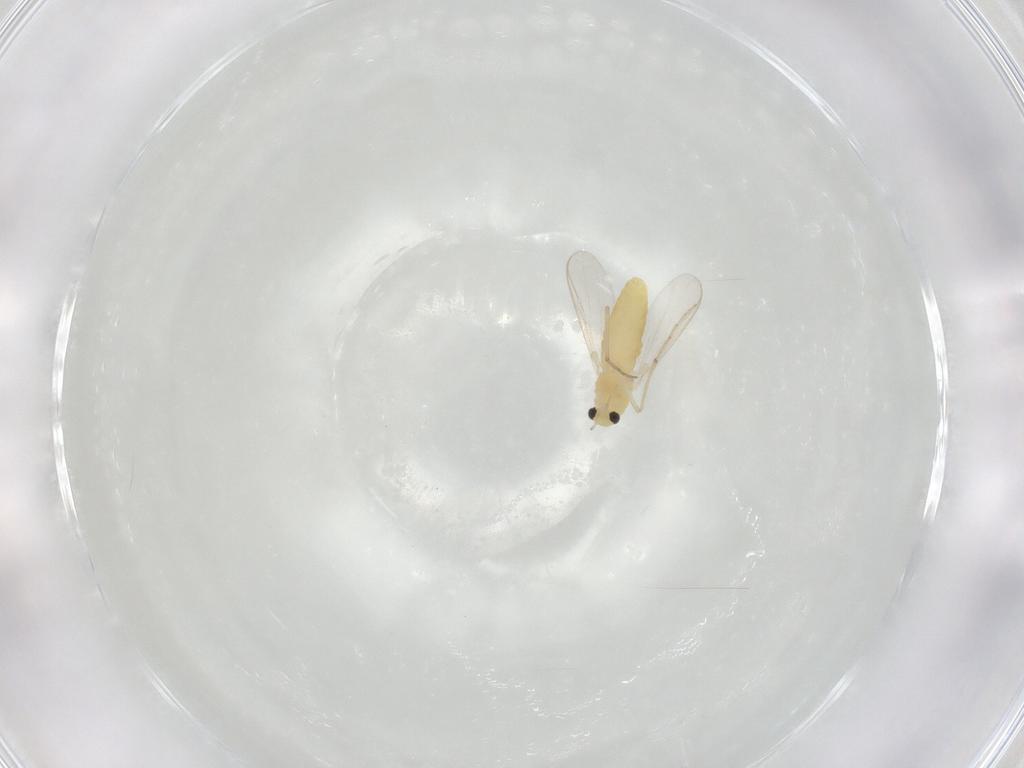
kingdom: Animalia
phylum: Arthropoda
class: Insecta
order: Diptera
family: Chironomidae
